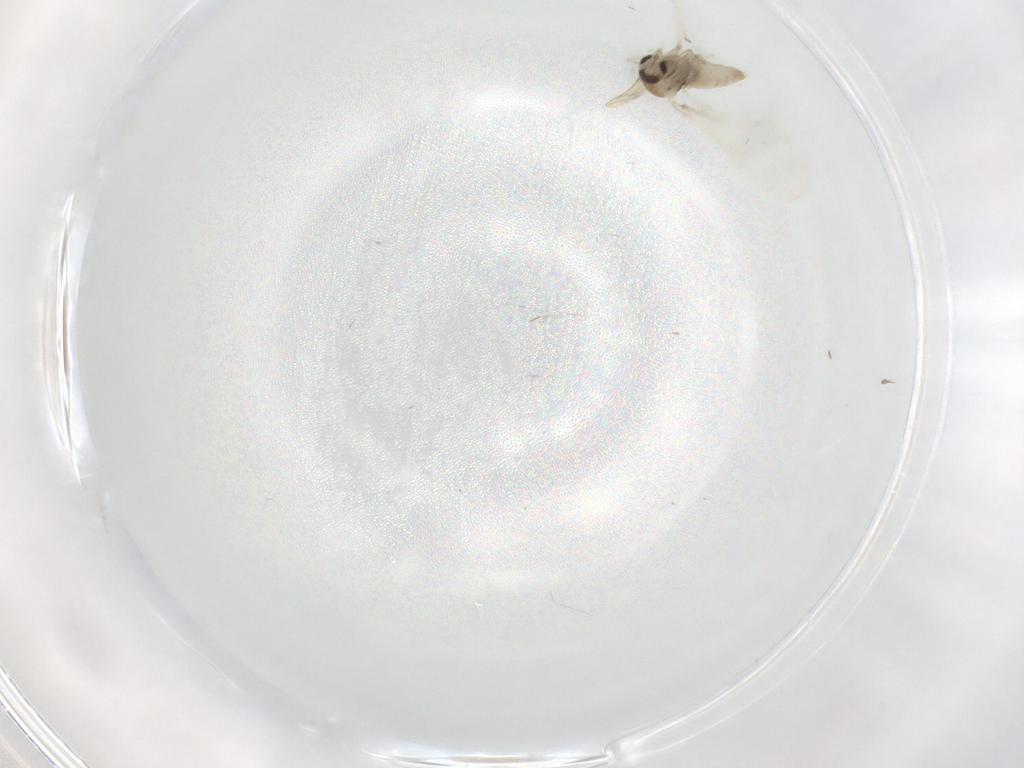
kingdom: Animalia
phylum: Arthropoda
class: Insecta
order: Diptera
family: Cecidomyiidae
